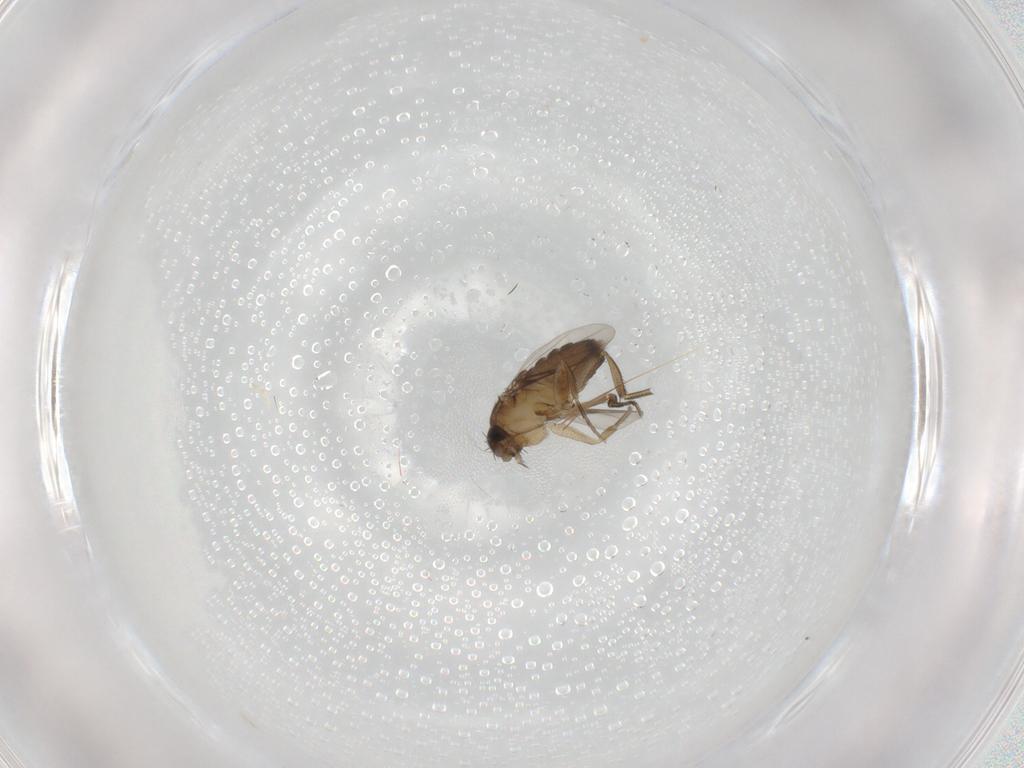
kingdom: Animalia
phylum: Arthropoda
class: Insecta
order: Diptera
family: Phoridae
